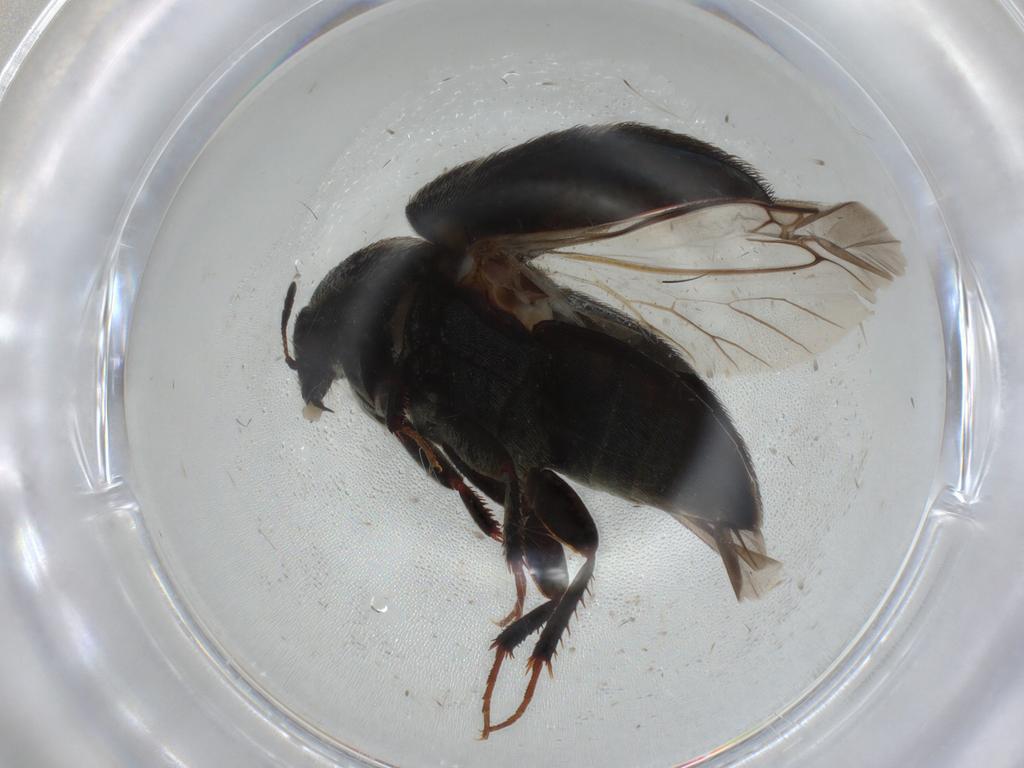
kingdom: Animalia
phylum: Arthropoda
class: Insecta
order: Coleoptera
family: Dermestidae
